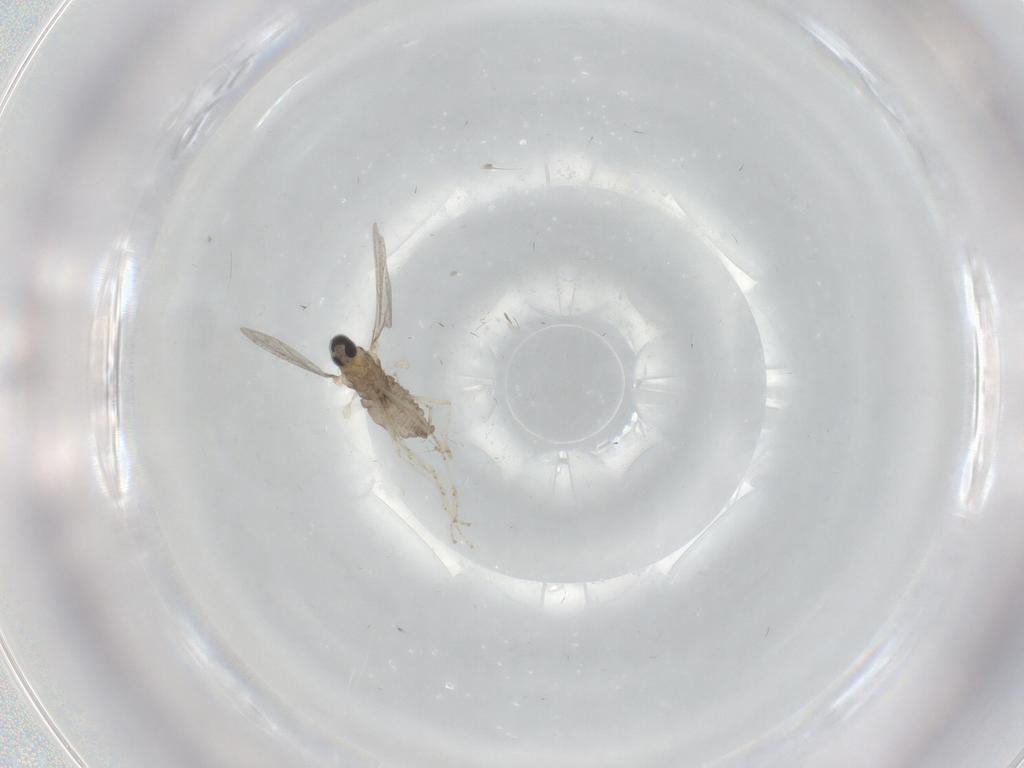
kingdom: Animalia
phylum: Arthropoda
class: Insecta
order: Diptera
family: Cecidomyiidae
